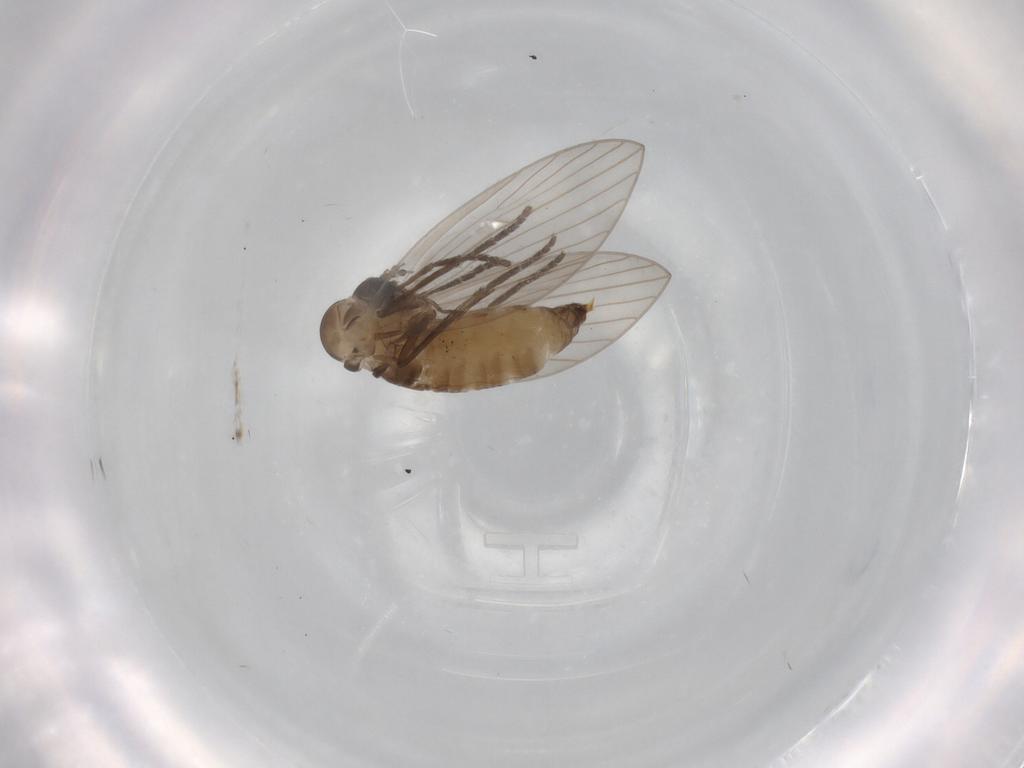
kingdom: Animalia
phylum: Arthropoda
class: Insecta
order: Diptera
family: Psychodidae
